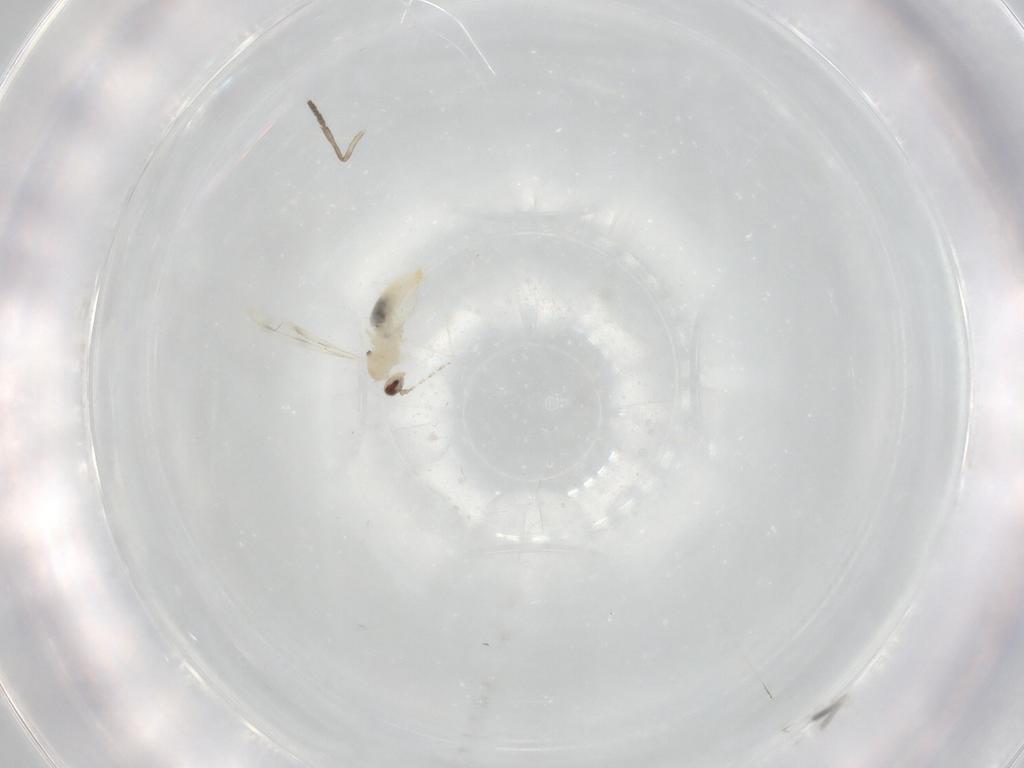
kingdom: Animalia
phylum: Arthropoda
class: Insecta
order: Diptera
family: Cecidomyiidae
